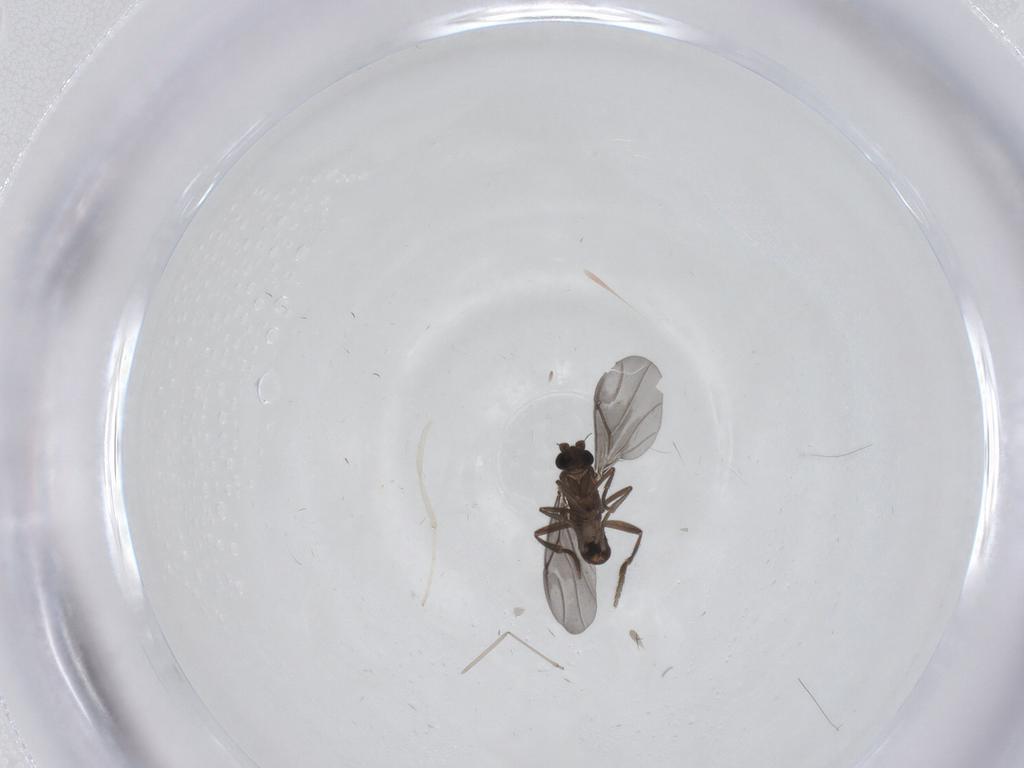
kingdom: Animalia
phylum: Arthropoda
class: Insecta
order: Diptera
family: Phoridae
